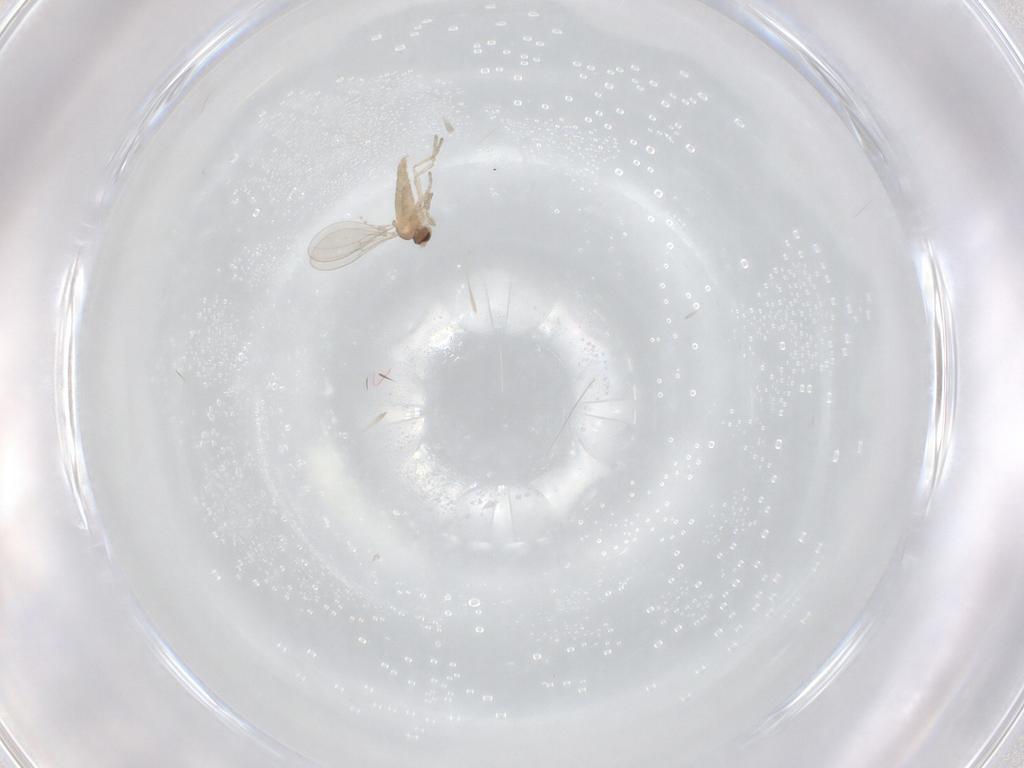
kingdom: Animalia
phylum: Arthropoda
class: Insecta
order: Diptera
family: Cecidomyiidae
